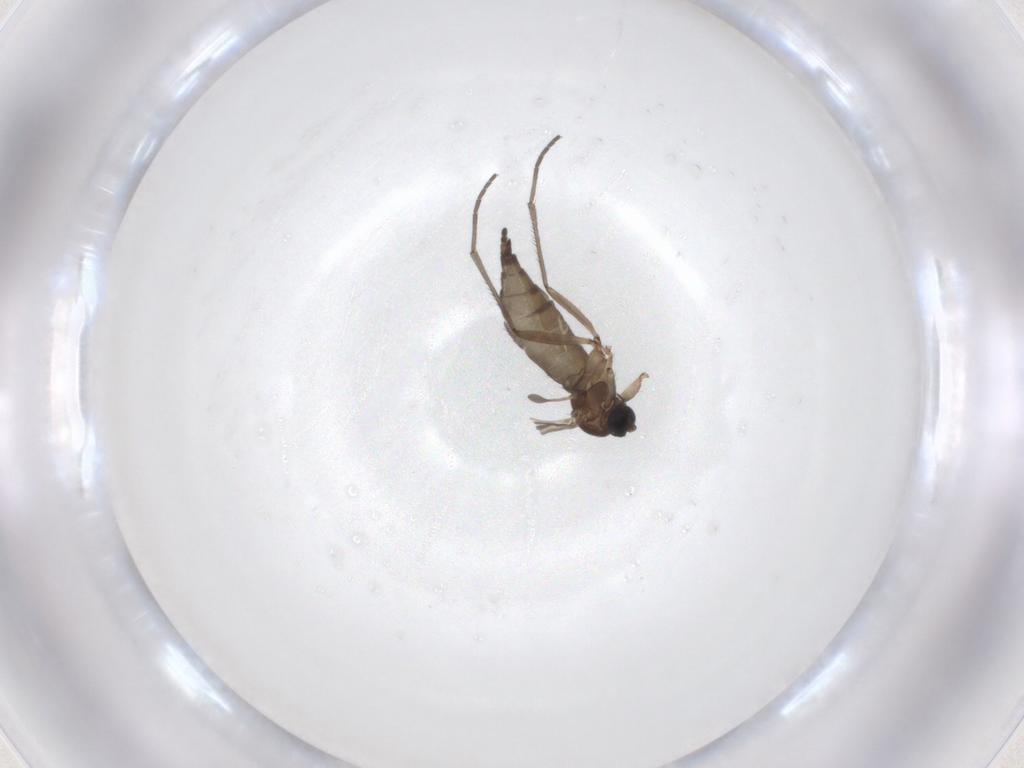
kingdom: Animalia
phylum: Arthropoda
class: Insecta
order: Diptera
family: Sciaridae
